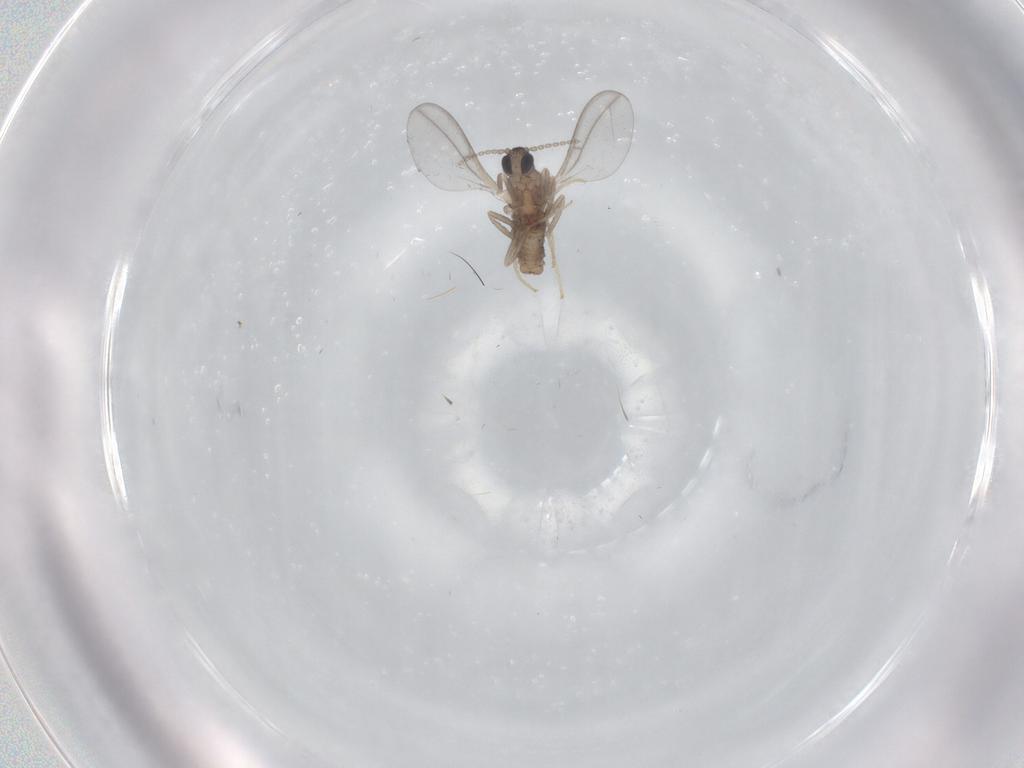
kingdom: Animalia
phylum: Arthropoda
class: Insecta
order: Diptera
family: Cecidomyiidae
